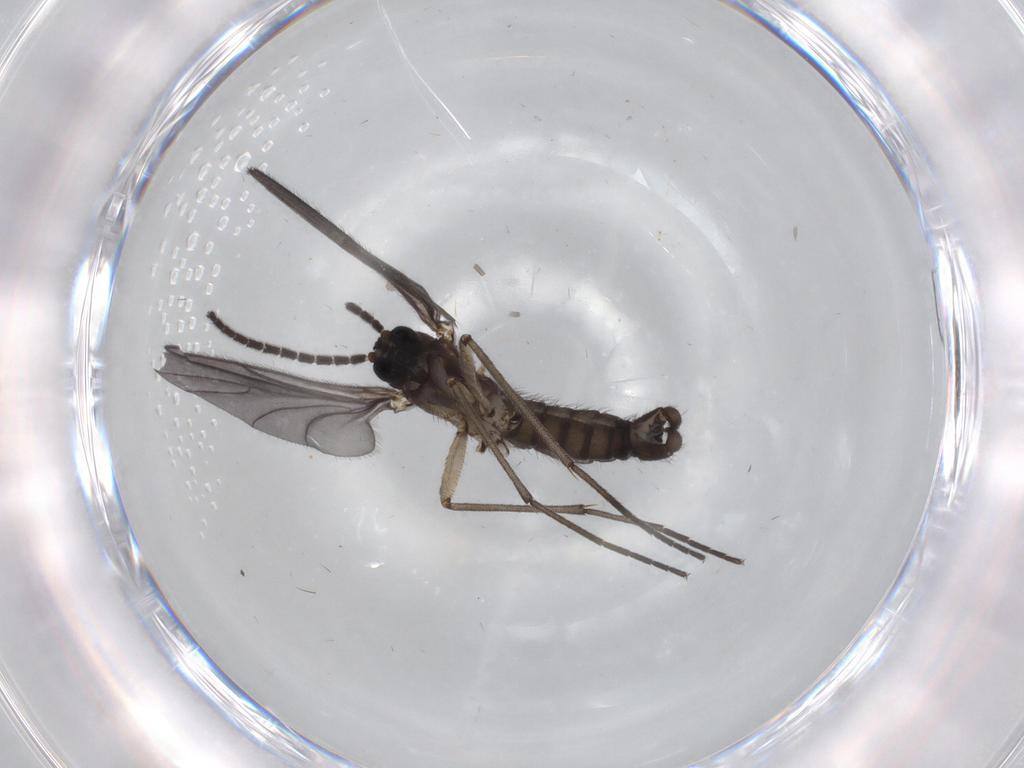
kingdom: Animalia
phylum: Arthropoda
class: Insecta
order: Diptera
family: Sciaridae
